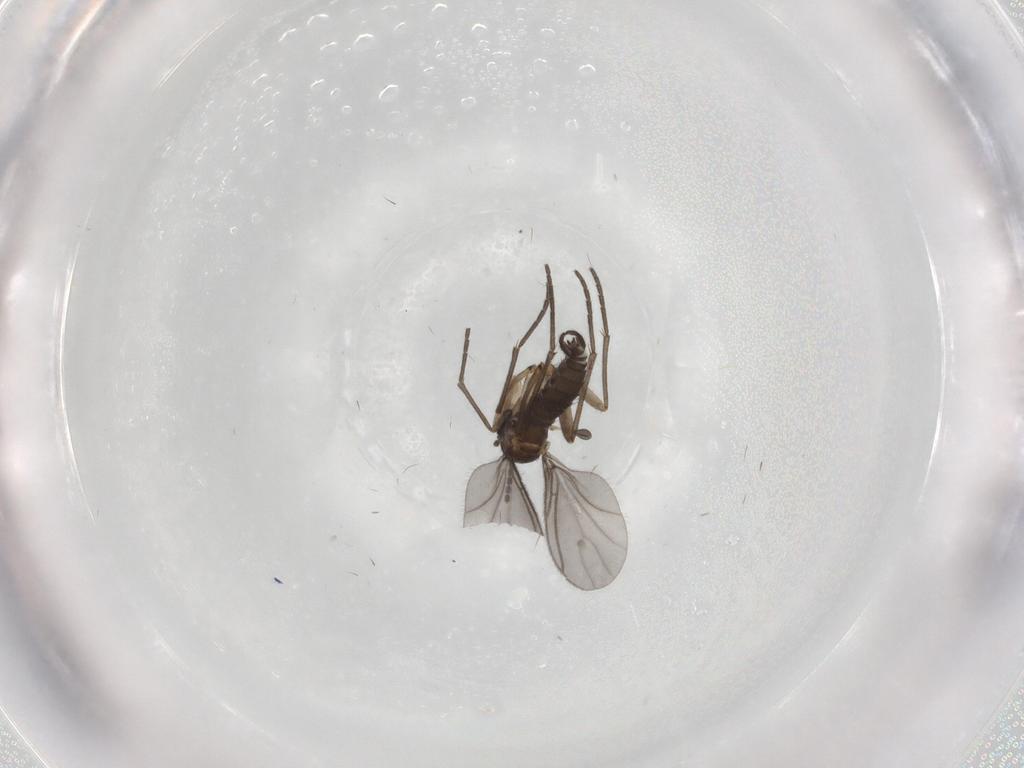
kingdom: Animalia
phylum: Arthropoda
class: Insecta
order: Diptera
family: Sciaridae
